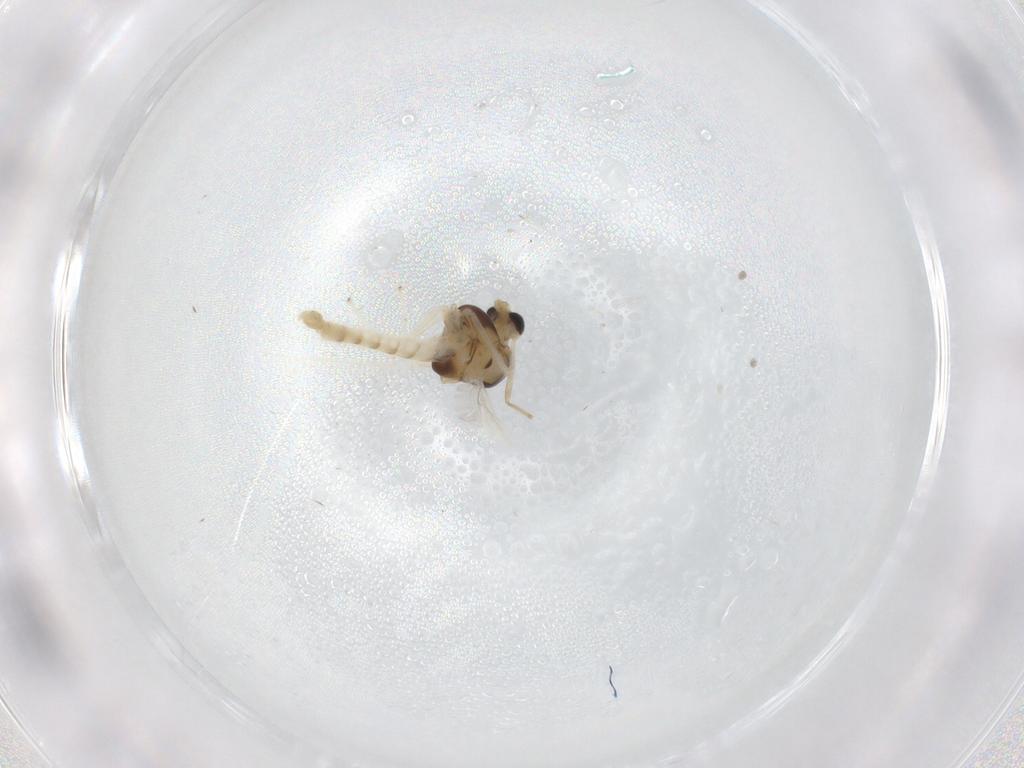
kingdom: Animalia
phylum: Arthropoda
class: Insecta
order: Diptera
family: Chironomidae
